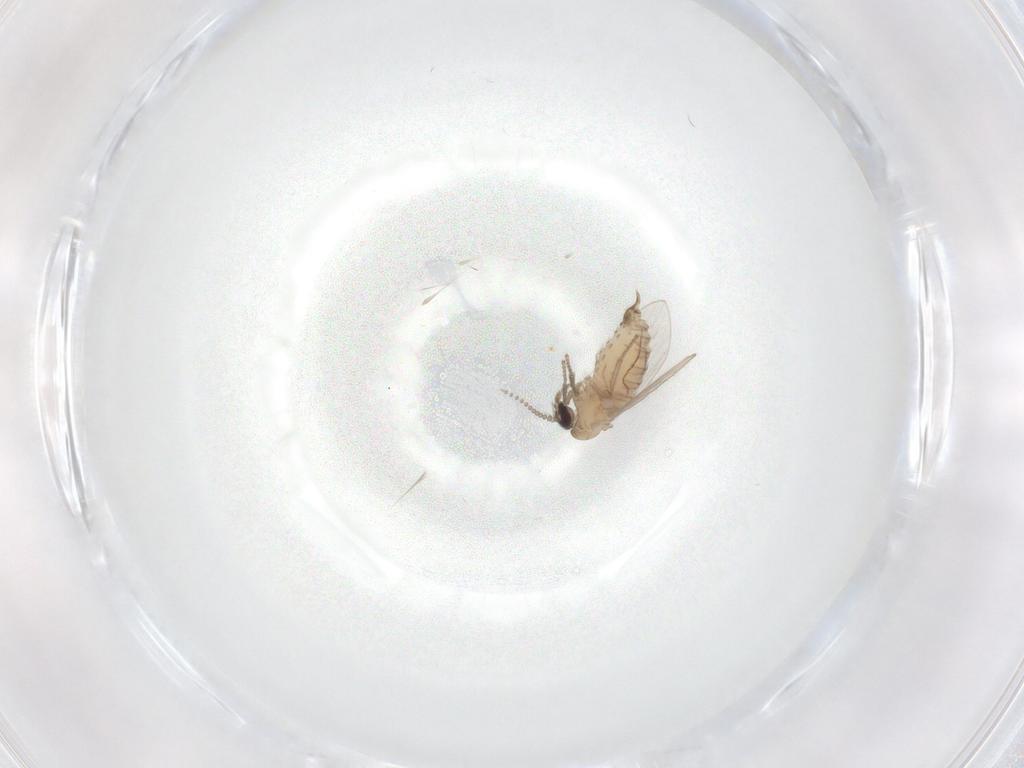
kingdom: Animalia
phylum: Arthropoda
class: Insecta
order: Diptera
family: Psychodidae
